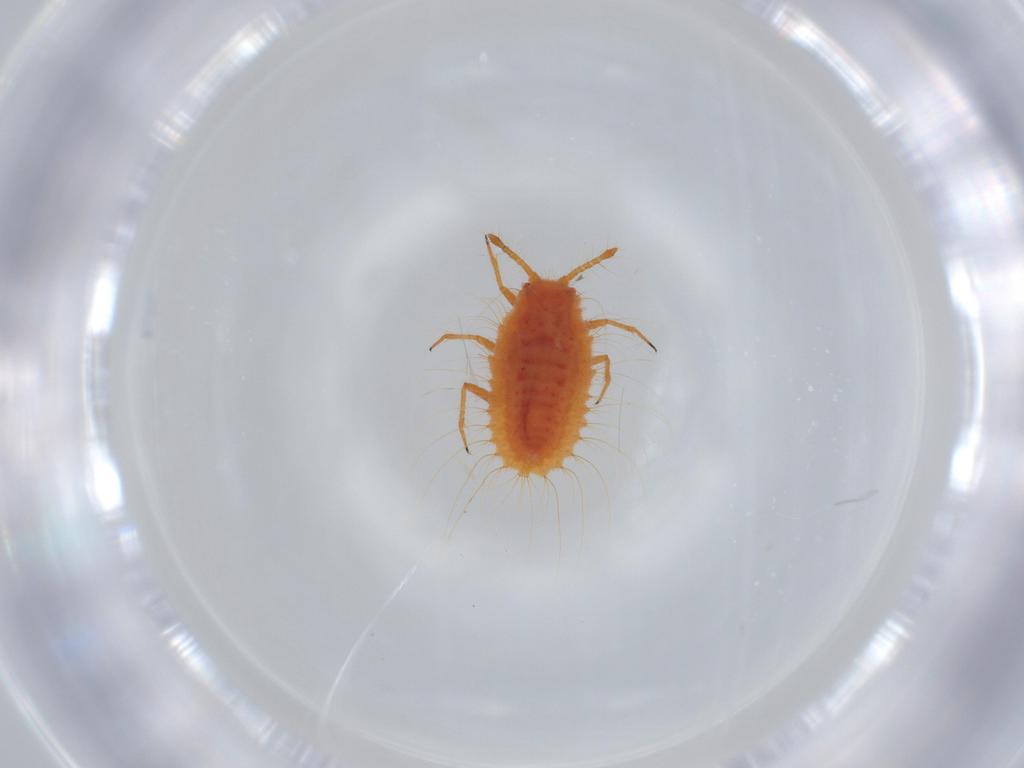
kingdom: Animalia
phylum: Arthropoda
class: Insecta
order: Hemiptera
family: Coccoidea_incertae_sedis
